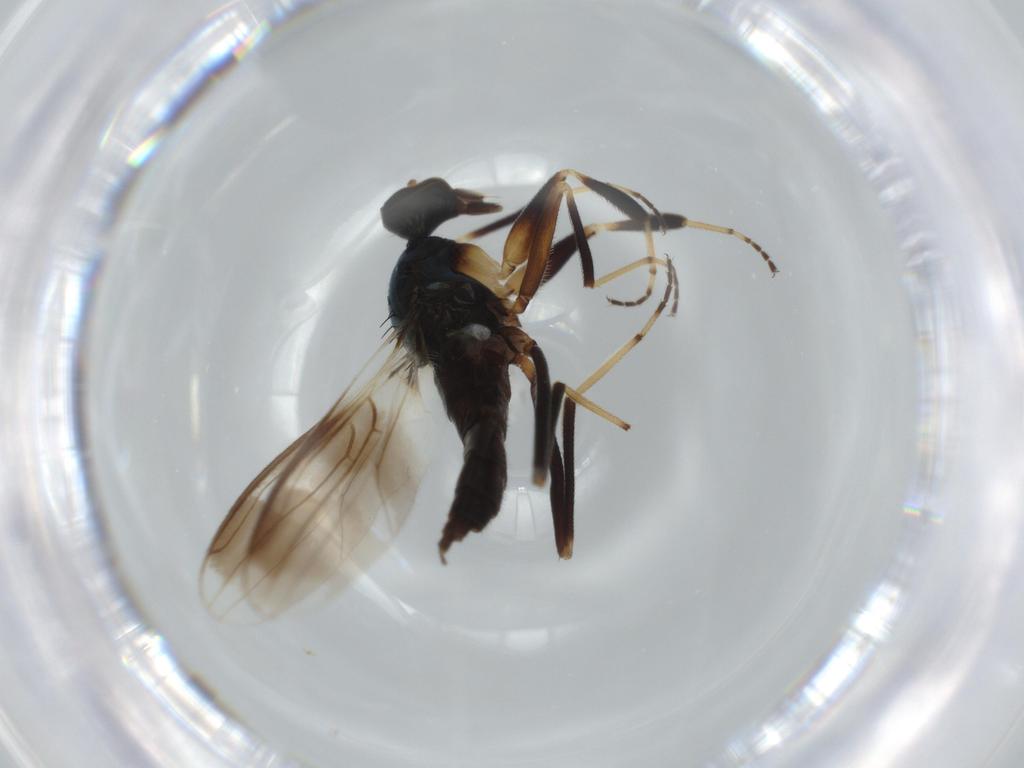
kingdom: Animalia
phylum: Arthropoda
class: Insecta
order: Diptera
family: Hybotidae
